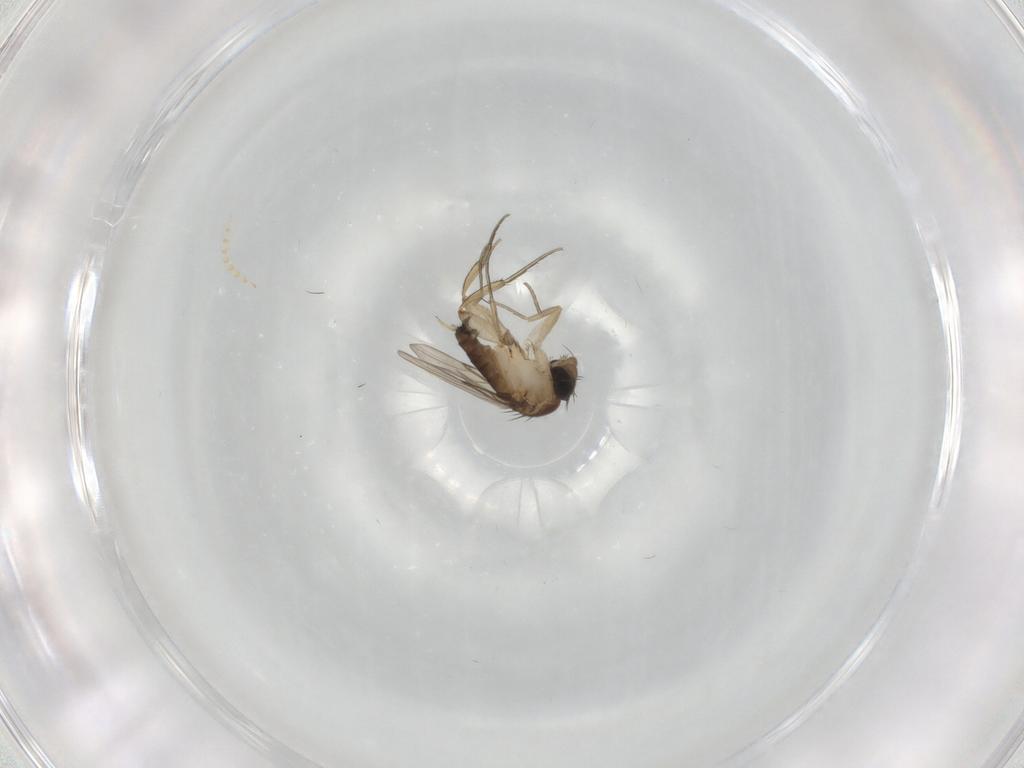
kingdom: Animalia
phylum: Arthropoda
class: Insecta
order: Diptera
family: Phoridae
